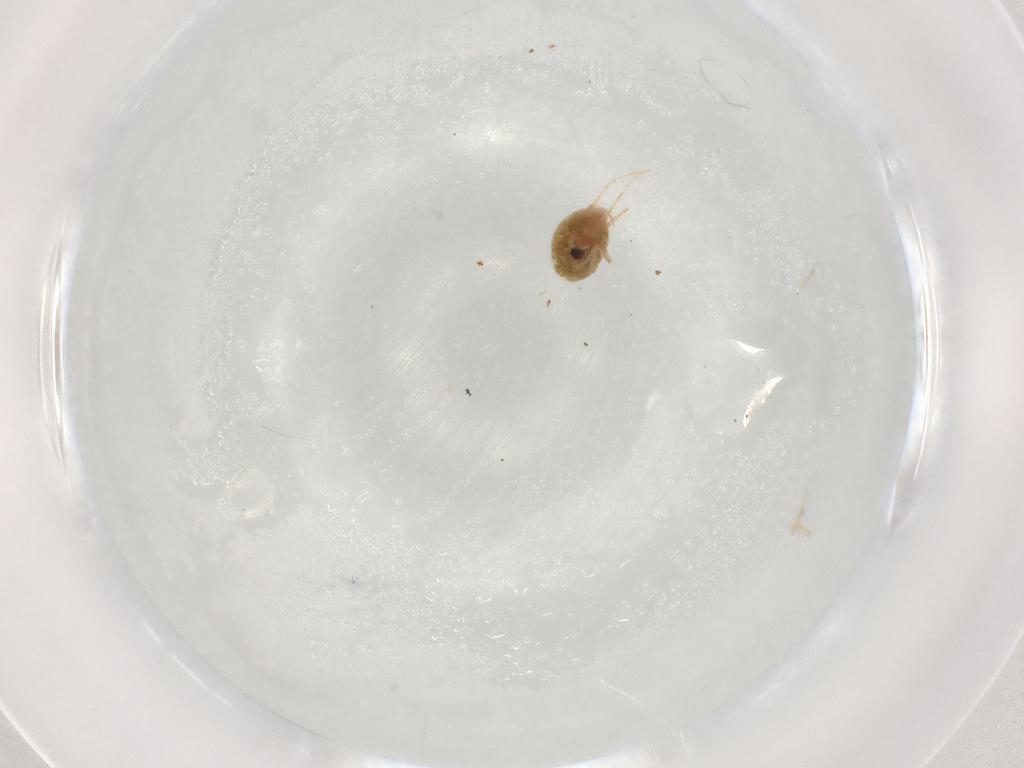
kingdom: Animalia
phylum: Arthropoda
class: Arachnida
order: Trombidiformes
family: Tetranychidae
